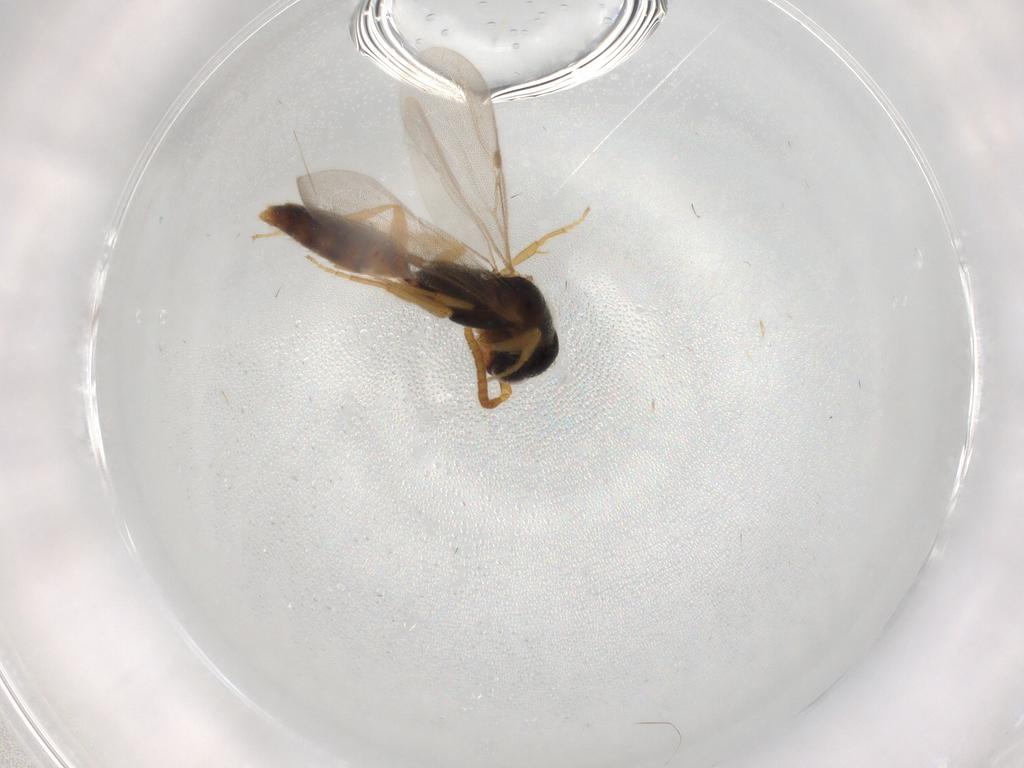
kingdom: Animalia
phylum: Arthropoda
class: Insecta
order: Hymenoptera
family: Bethylidae
